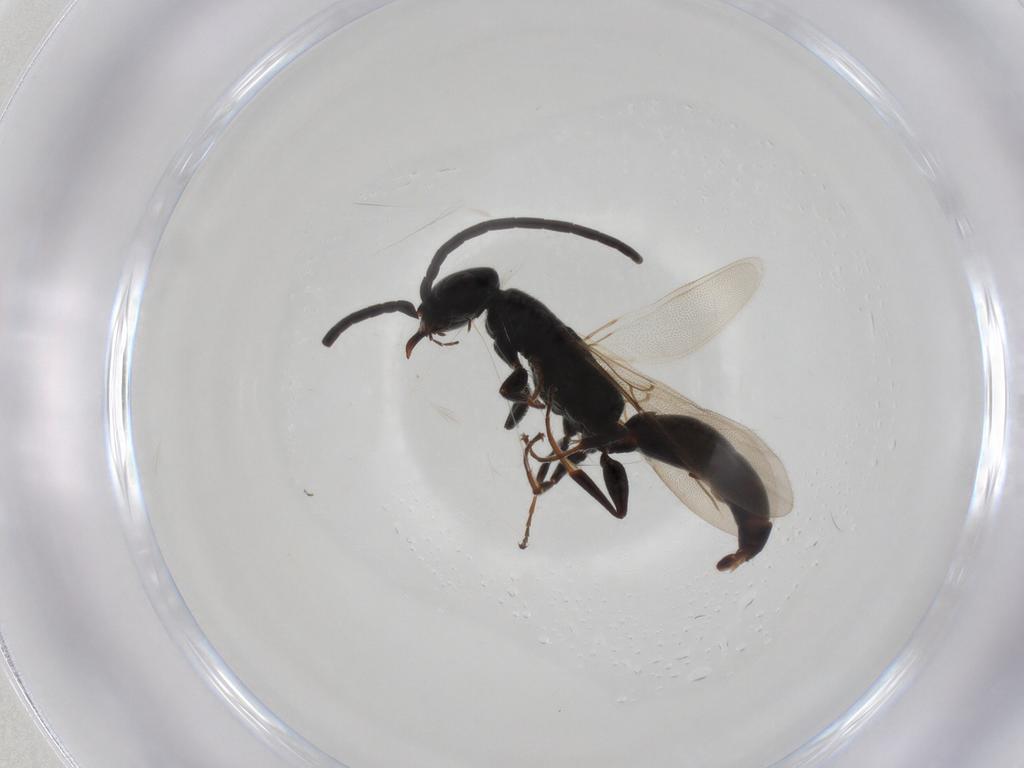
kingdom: Animalia
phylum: Arthropoda
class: Insecta
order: Hymenoptera
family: Bethylidae
